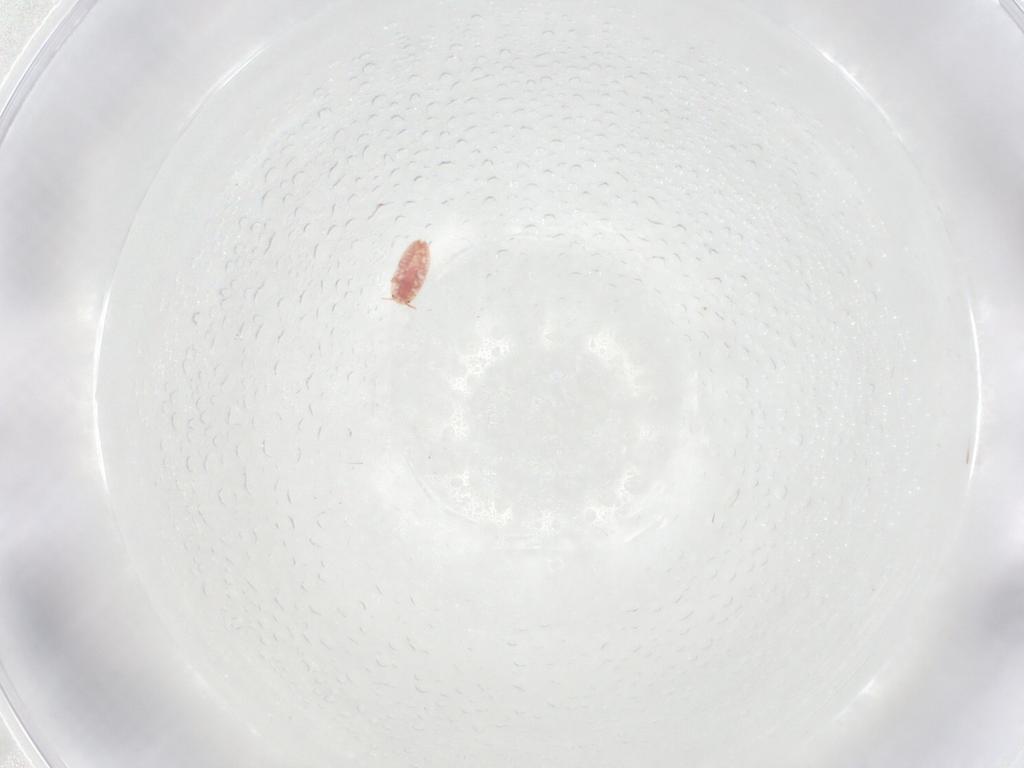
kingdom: Animalia
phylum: Arthropoda
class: Insecta
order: Hemiptera
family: Coccidae
